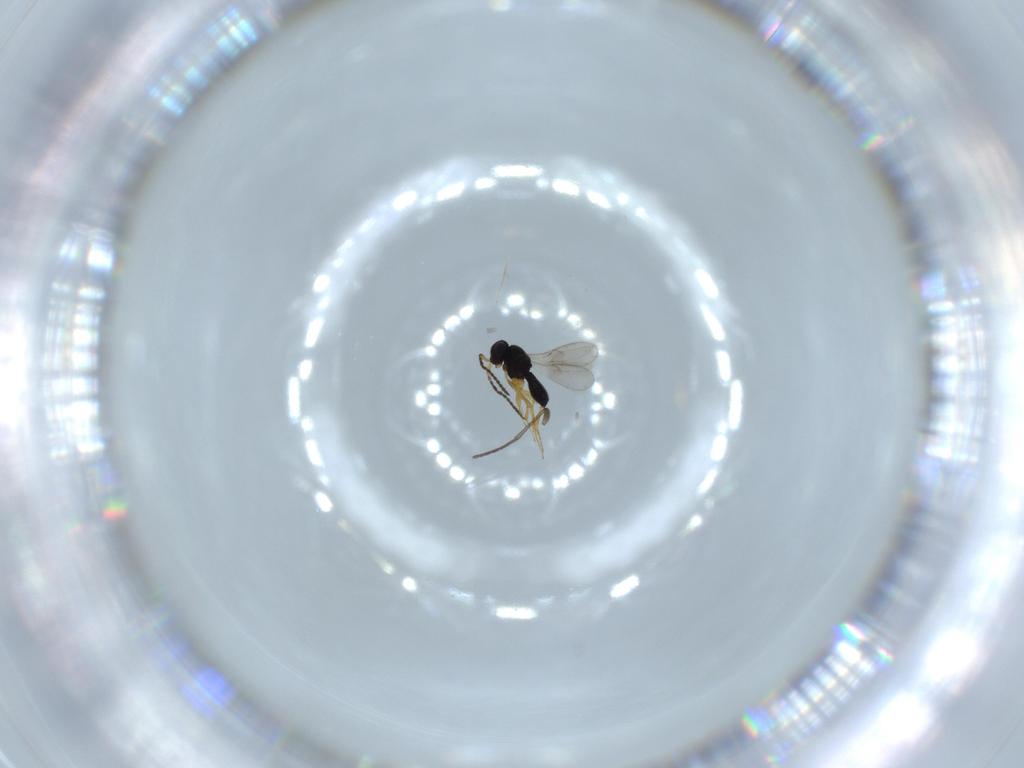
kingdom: Animalia
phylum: Arthropoda
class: Insecta
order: Hymenoptera
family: Scelionidae
